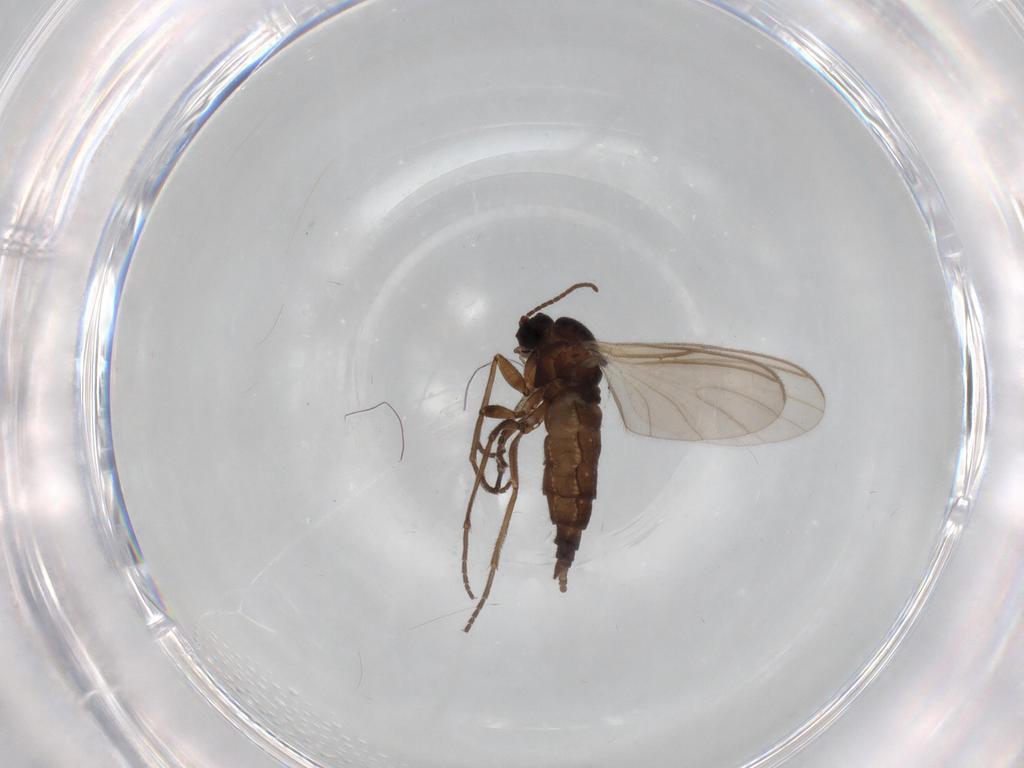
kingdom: Animalia
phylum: Arthropoda
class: Insecta
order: Diptera
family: Sciaridae
